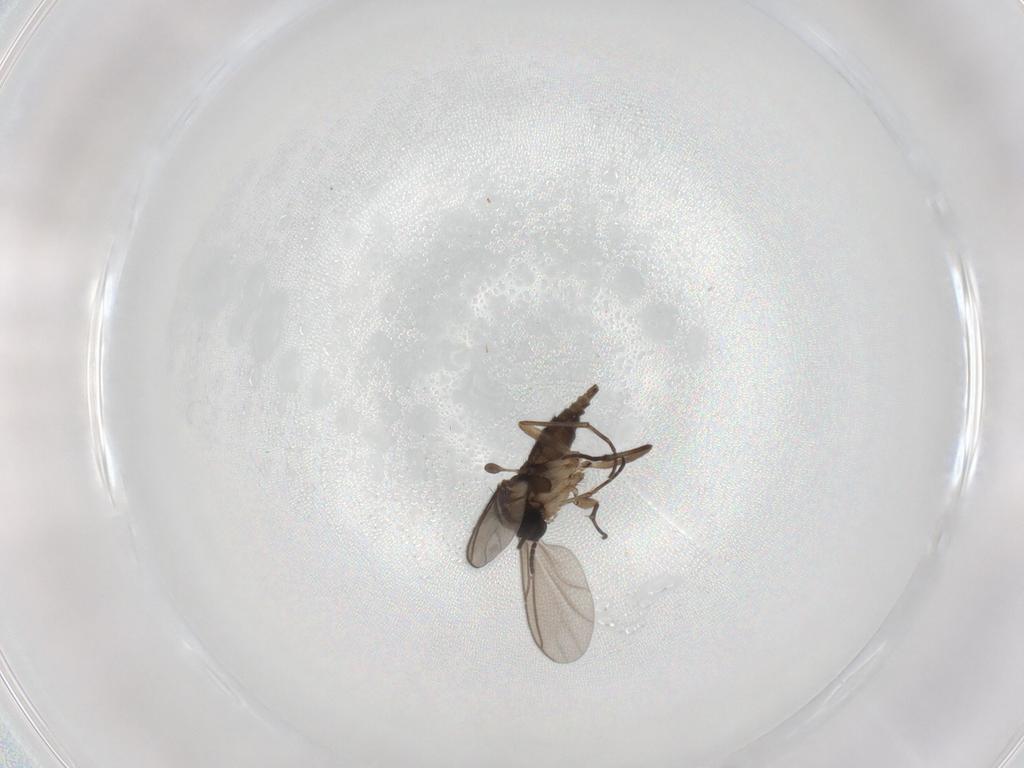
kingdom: Animalia
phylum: Arthropoda
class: Insecta
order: Diptera
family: Sciaridae
